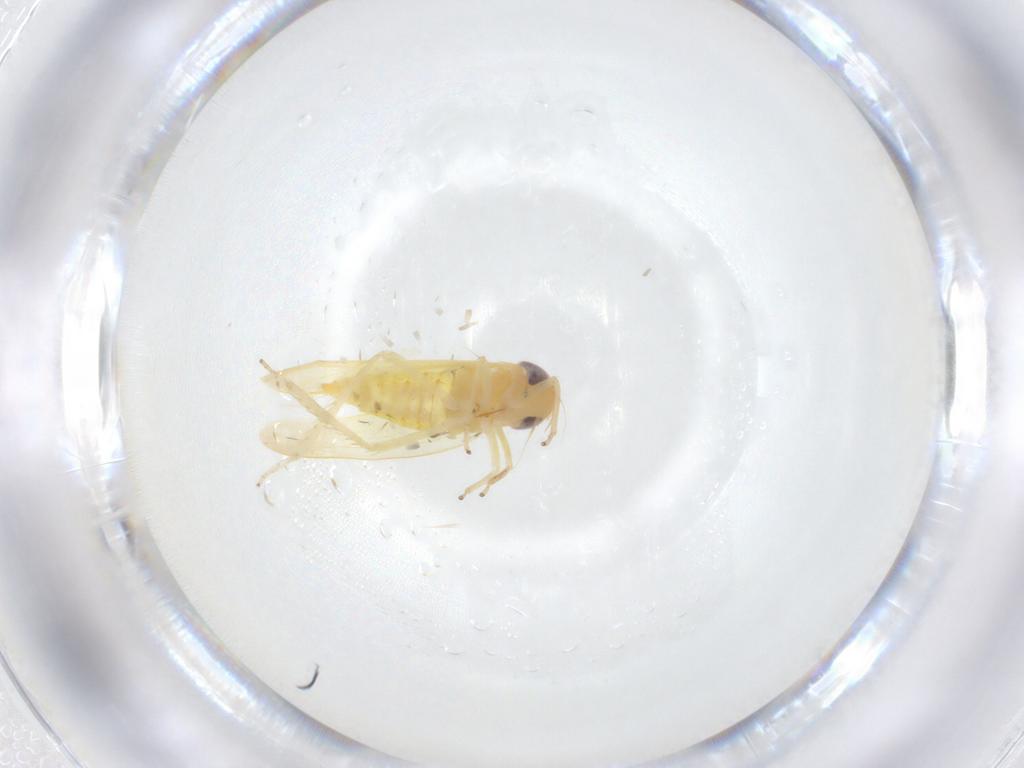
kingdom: Animalia
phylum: Arthropoda
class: Insecta
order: Hemiptera
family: Cicadellidae
